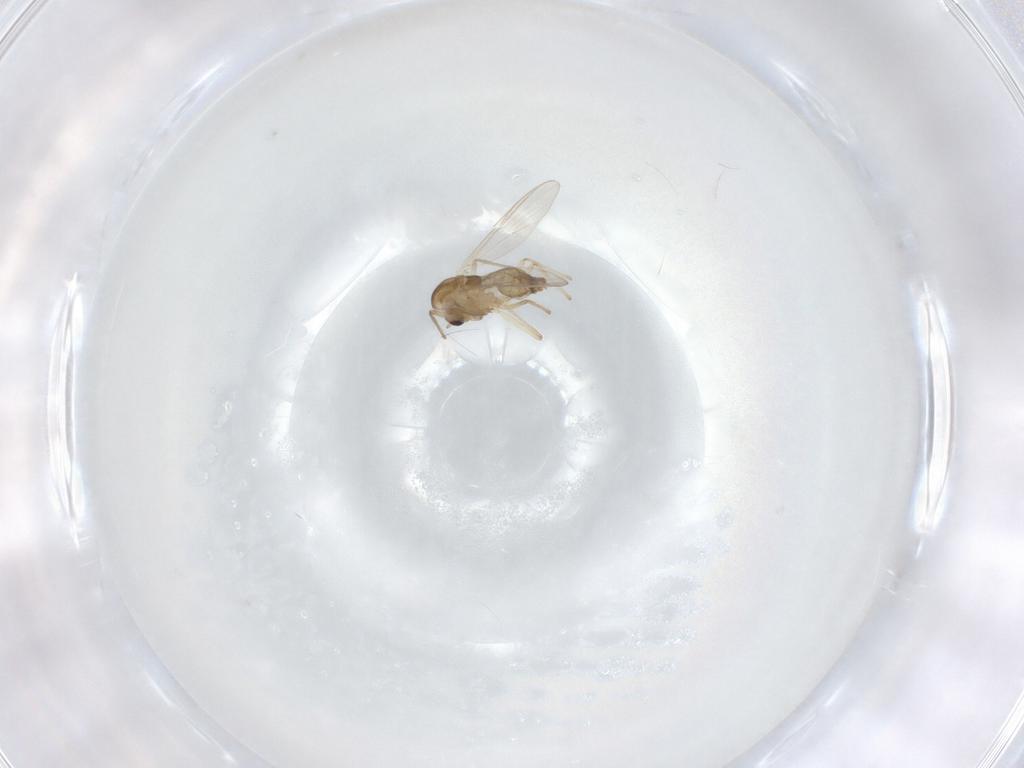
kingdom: Animalia
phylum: Arthropoda
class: Insecta
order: Diptera
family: Chironomidae
